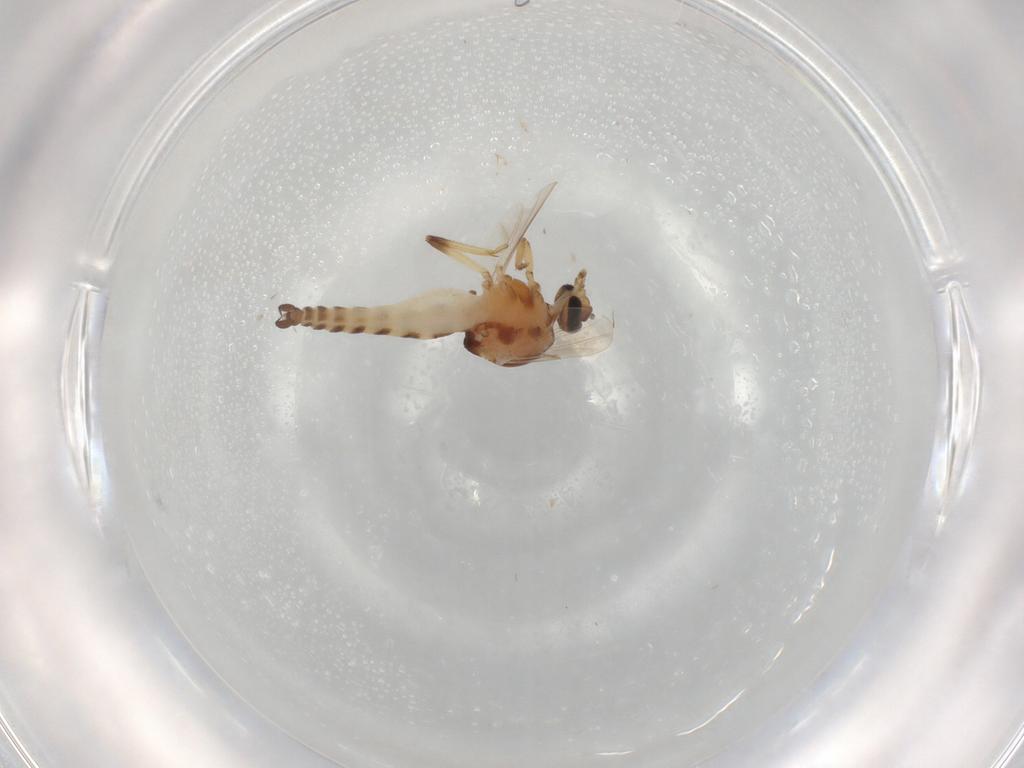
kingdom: Animalia
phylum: Arthropoda
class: Insecta
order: Diptera
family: Ceratopogonidae
